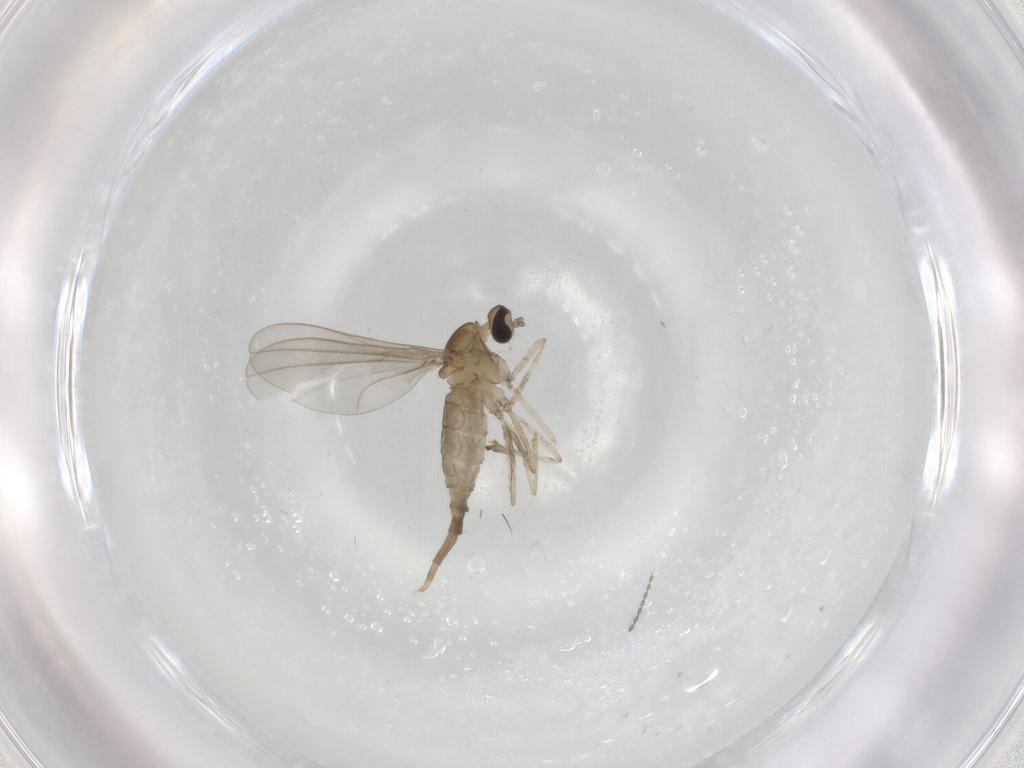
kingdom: Animalia
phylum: Arthropoda
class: Insecta
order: Diptera
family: Cecidomyiidae
